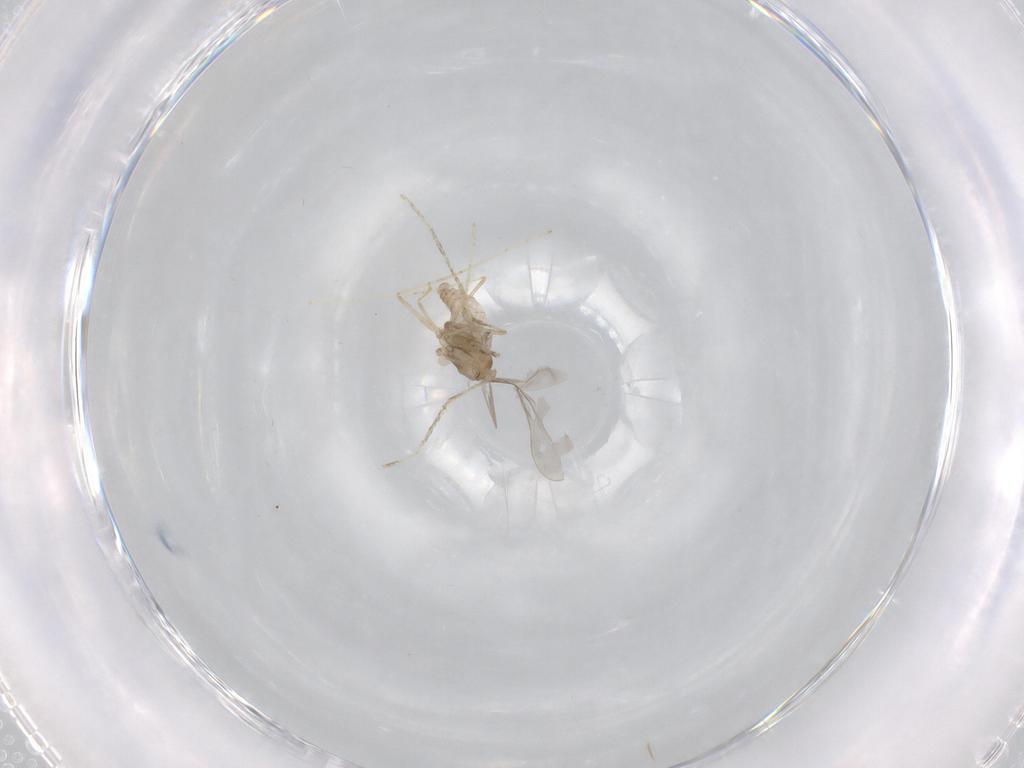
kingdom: Animalia
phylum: Arthropoda
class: Insecta
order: Diptera
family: Cecidomyiidae
